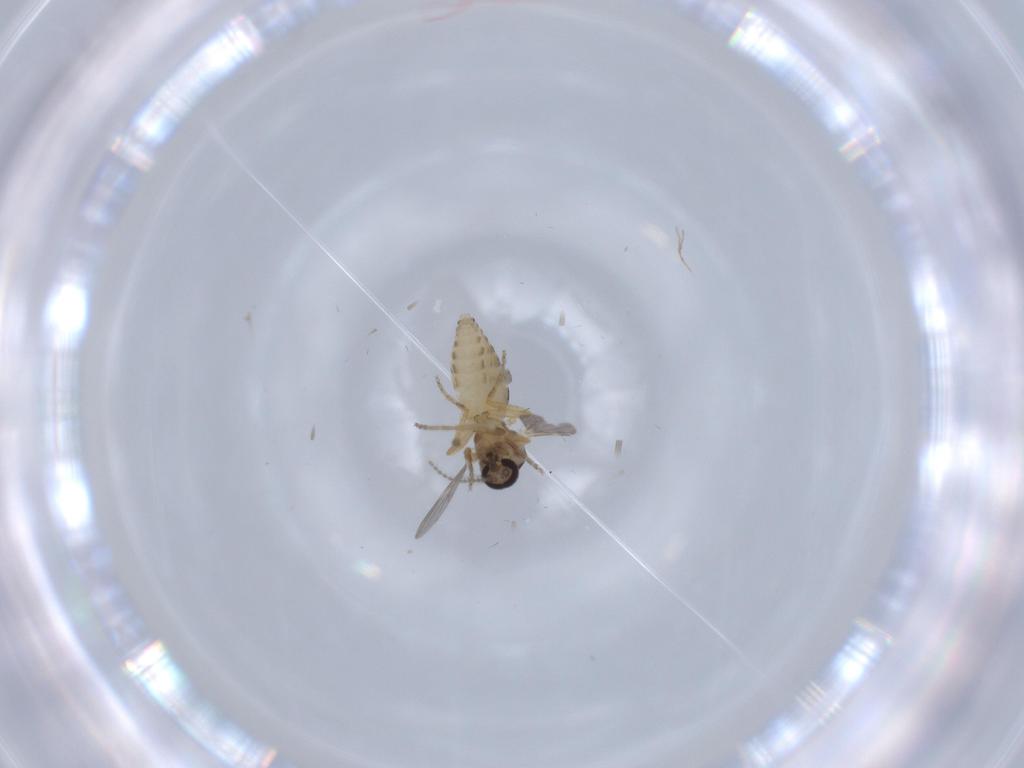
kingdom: Animalia
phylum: Arthropoda
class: Insecta
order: Diptera
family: Ceratopogonidae
